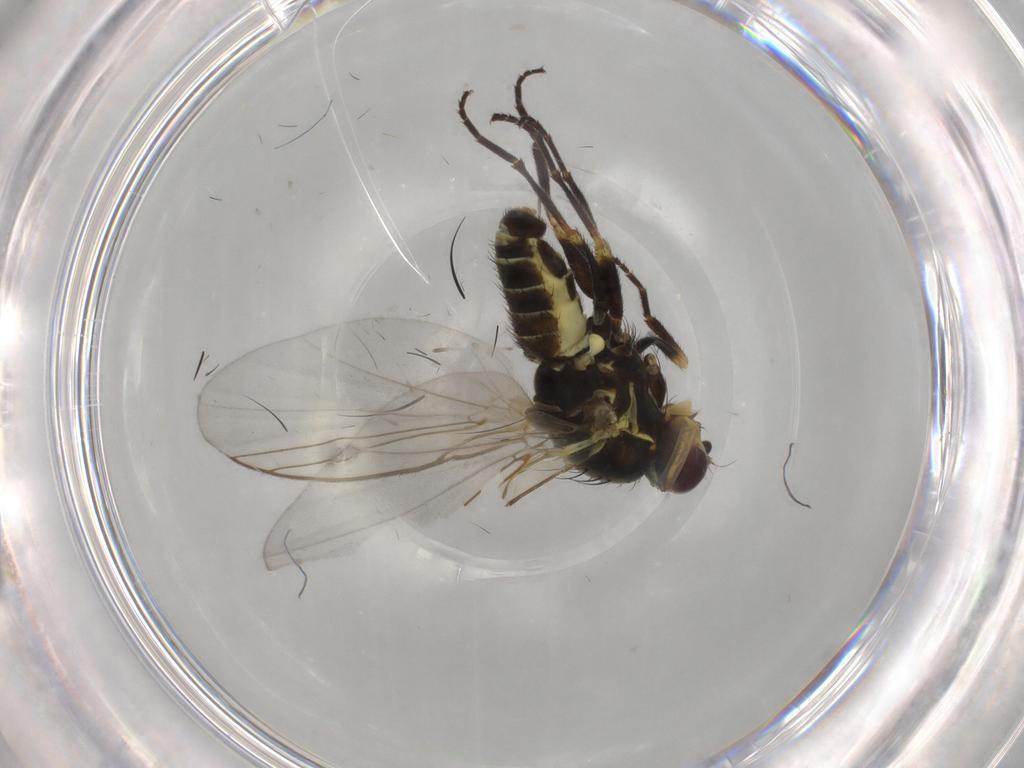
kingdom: Animalia
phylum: Arthropoda
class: Insecta
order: Diptera
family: Agromyzidae
